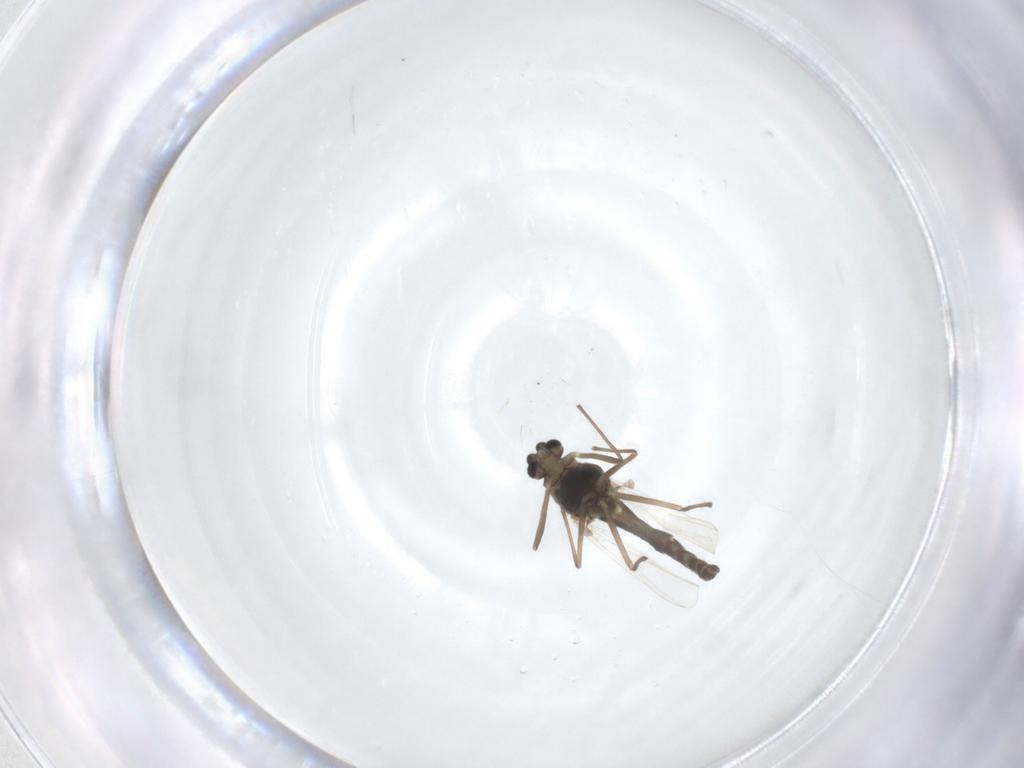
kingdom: Animalia
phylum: Arthropoda
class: Insecta
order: Diptera
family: Chironomidae
